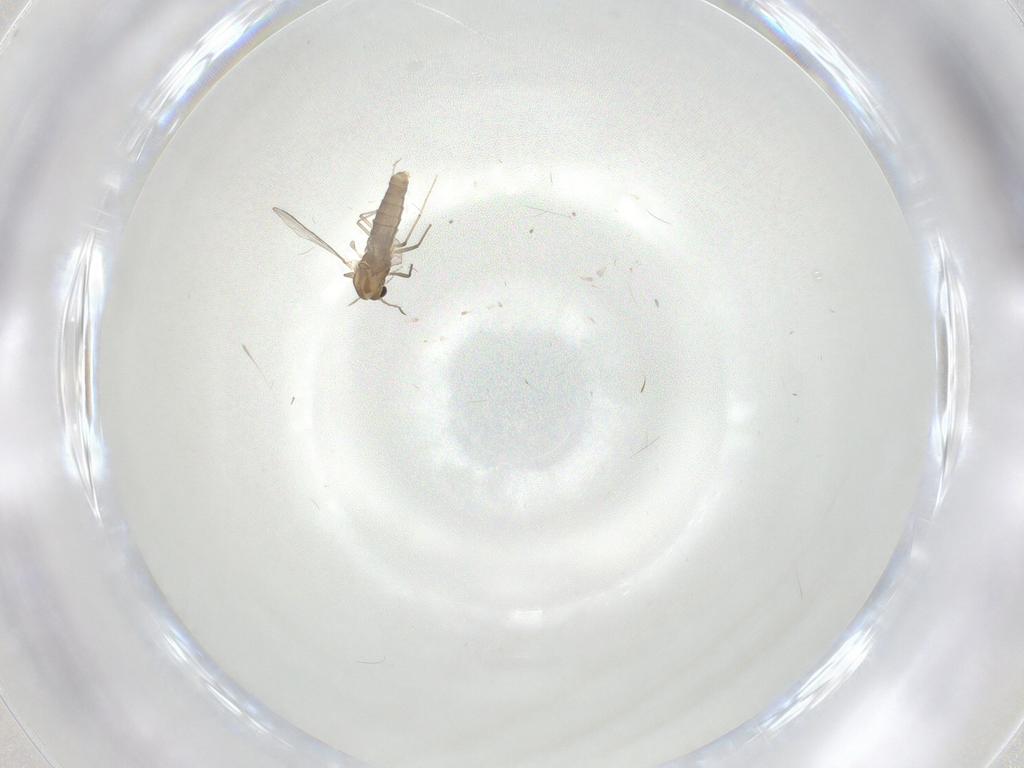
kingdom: Animalia
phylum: Arthropoda
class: Insecta
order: Diptera
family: Chironomidae
